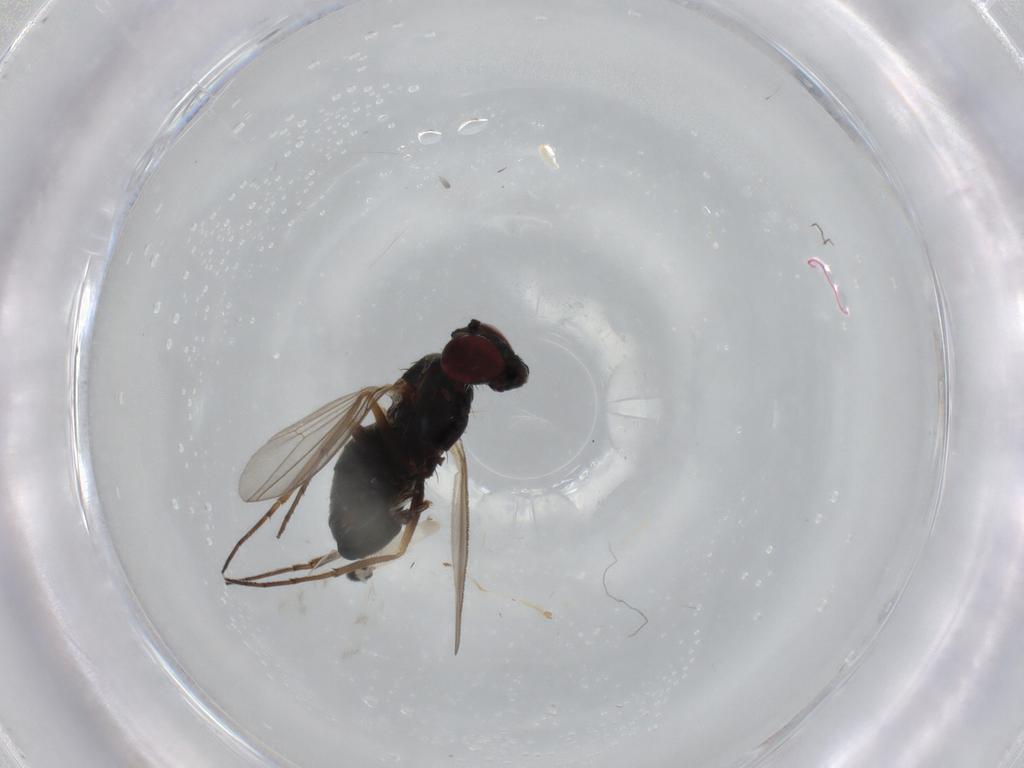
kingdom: Animalia
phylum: Arthropoda
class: Insecta
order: Diptera
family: Dolichopodidae
